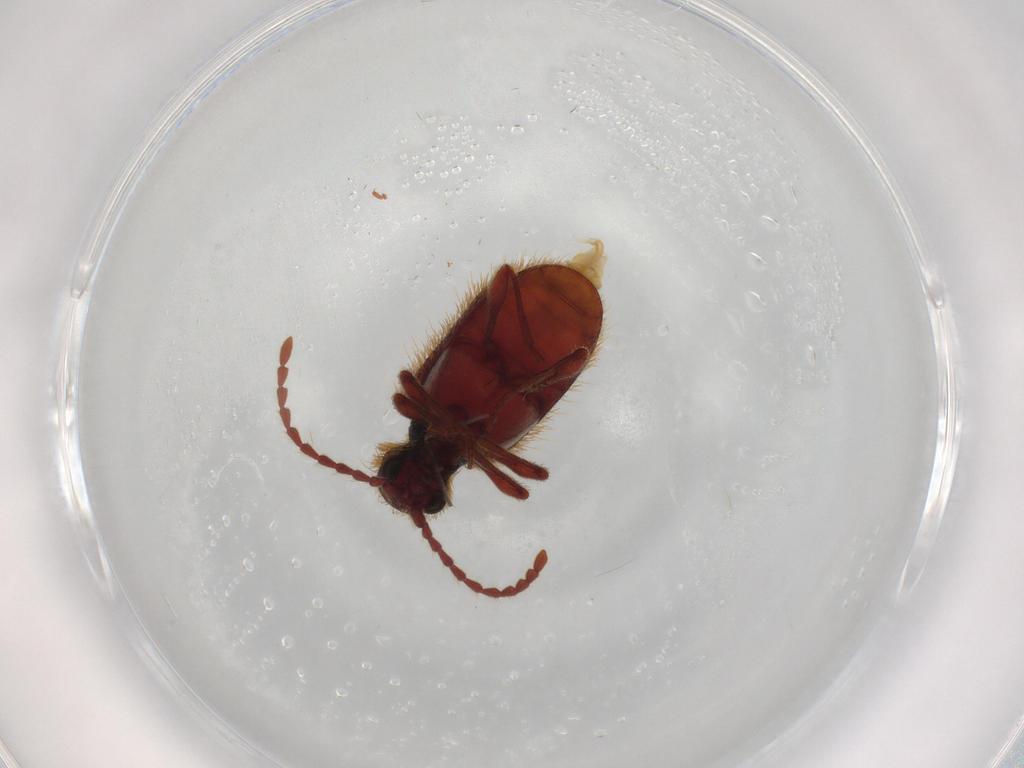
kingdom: Animalia
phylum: Arthropoda
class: Insecta
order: Coleoptera
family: Ptinidae
